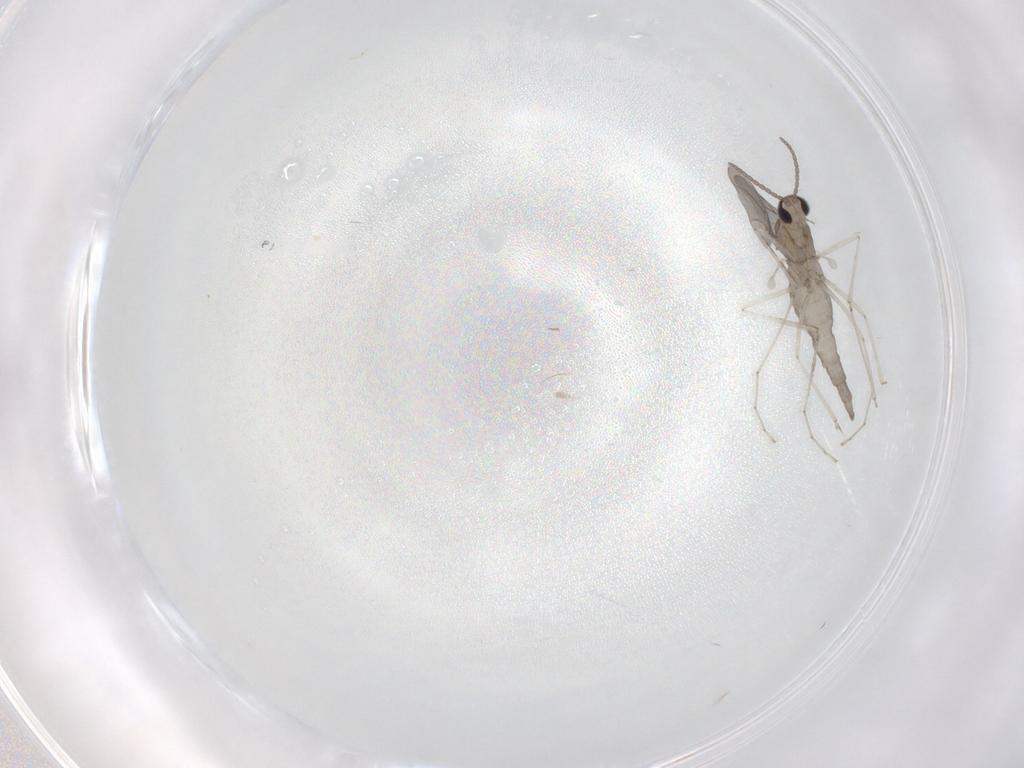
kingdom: Animalia
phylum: Arthropoda
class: Insecta
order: Diptera
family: Cecidomyiidae
